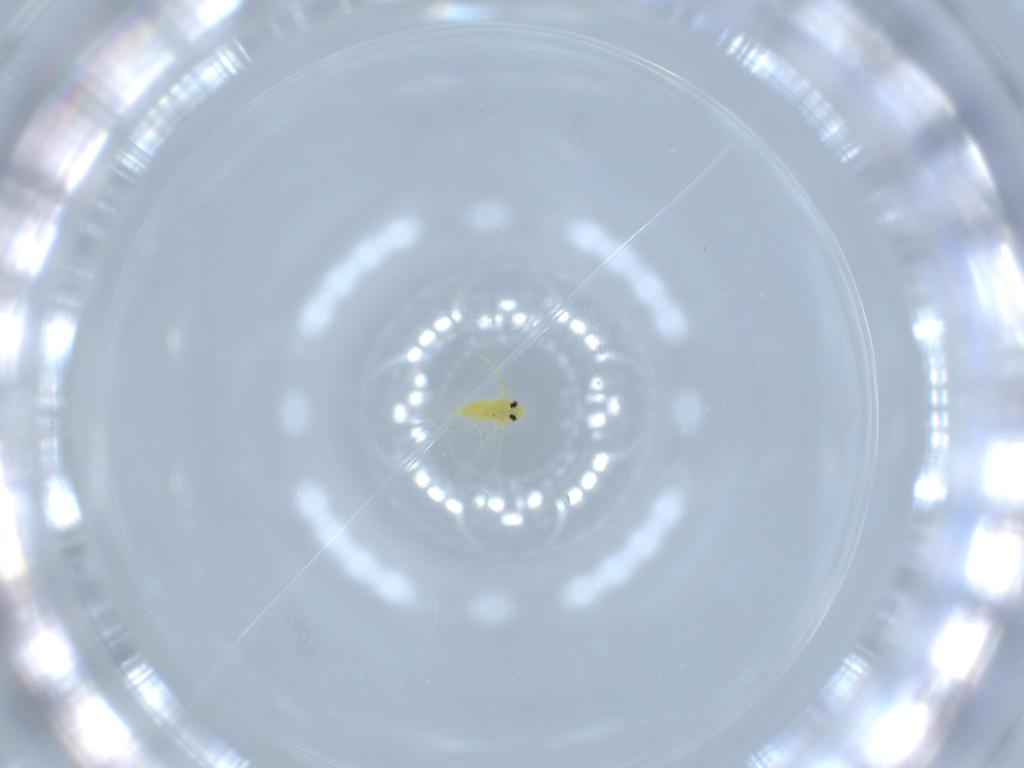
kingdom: Animalia
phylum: Arthropoda
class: Insecta
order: Hemiptera
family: Aleyrodidae
